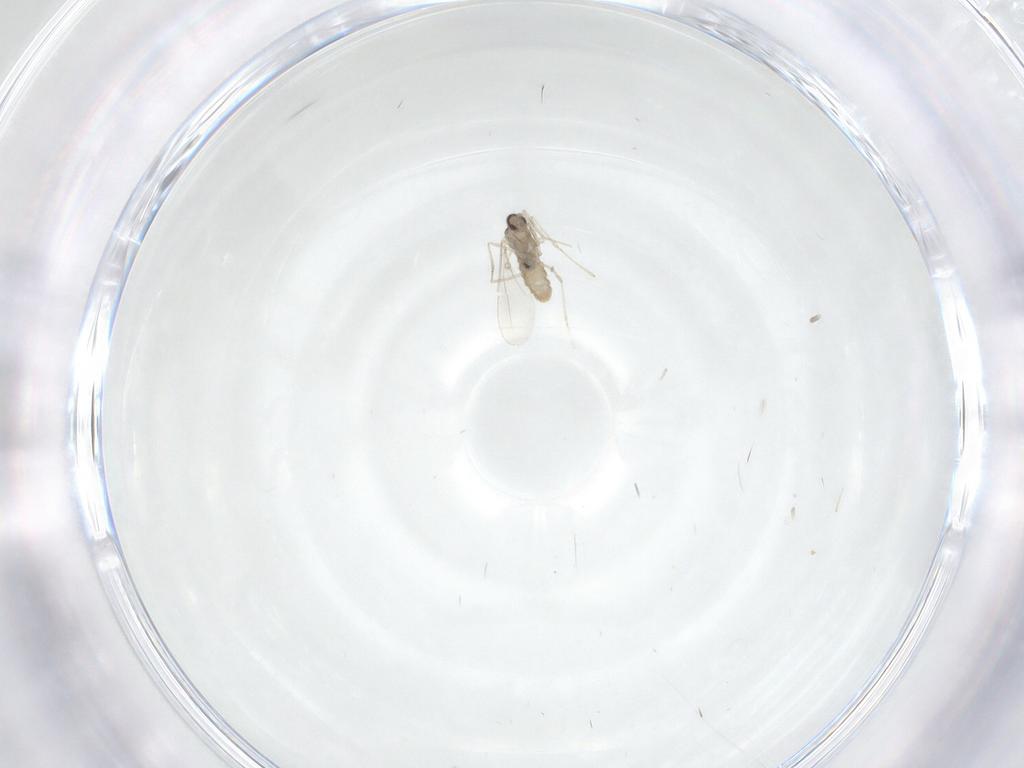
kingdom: Animalia
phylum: Arthropoda
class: Insecta
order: Diptera
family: Cecidomyiidae
